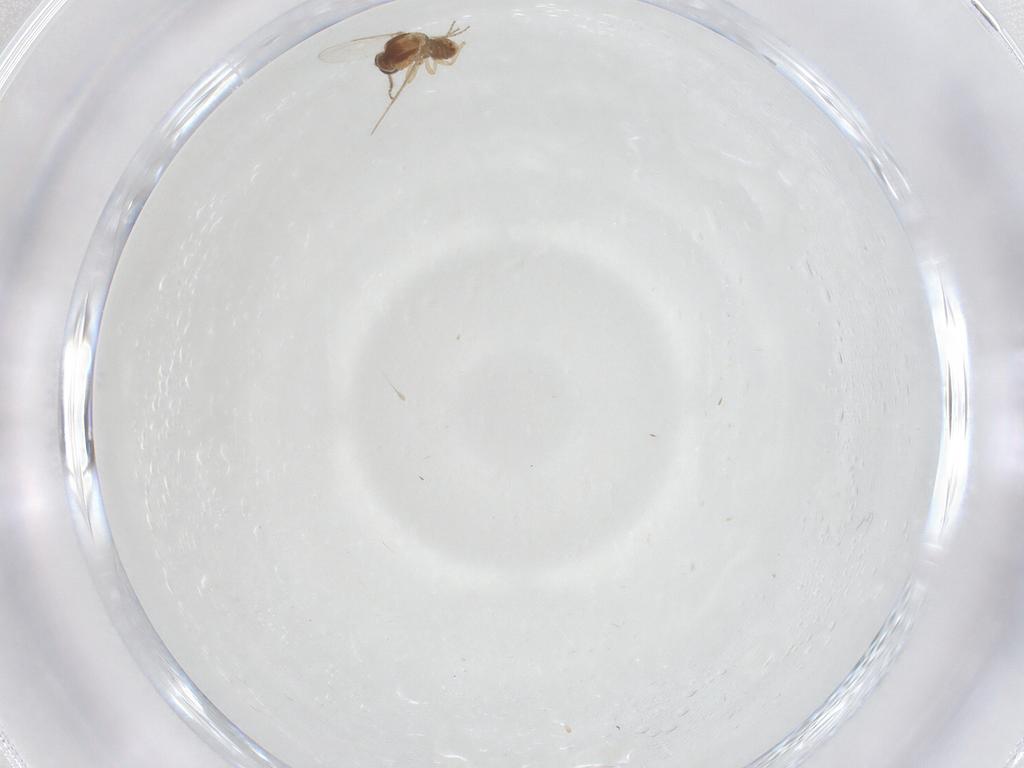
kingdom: Animalia
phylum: Arthropoda
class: Insecta
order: Diptera
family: Ceratopogonidae
